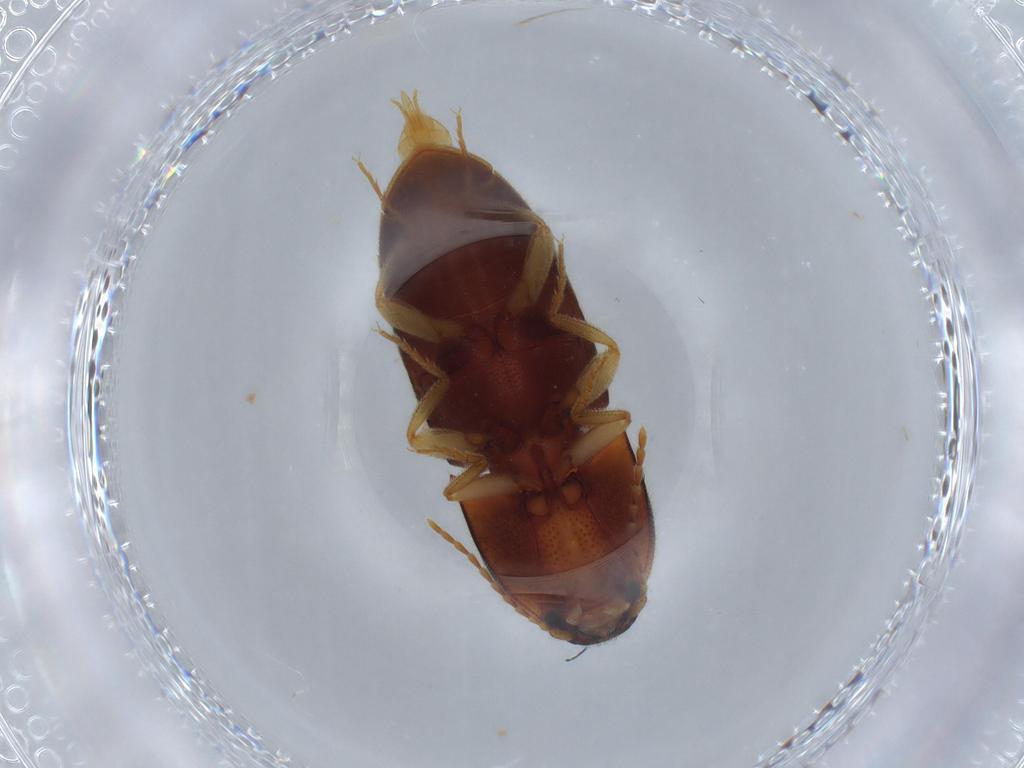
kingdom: Animalia
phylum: Arthropoda
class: Insecta
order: Coleoptera
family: Elateridae
